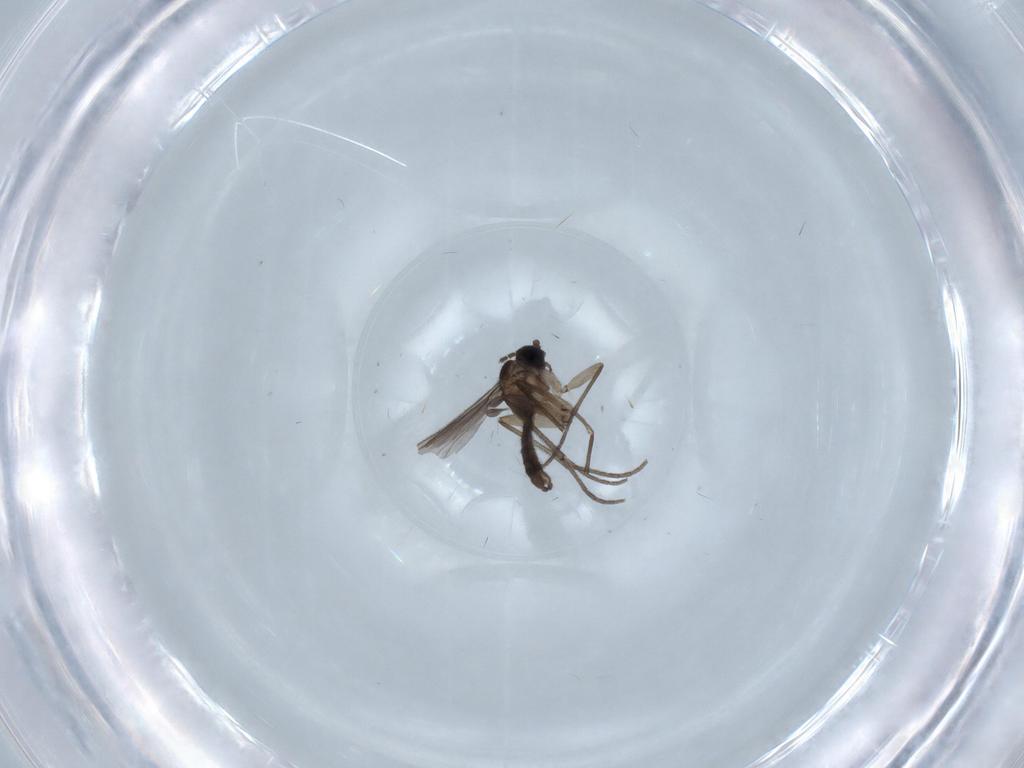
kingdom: Animalia
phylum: Arthropoda
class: Insecta
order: Diptera
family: Sciaridae
